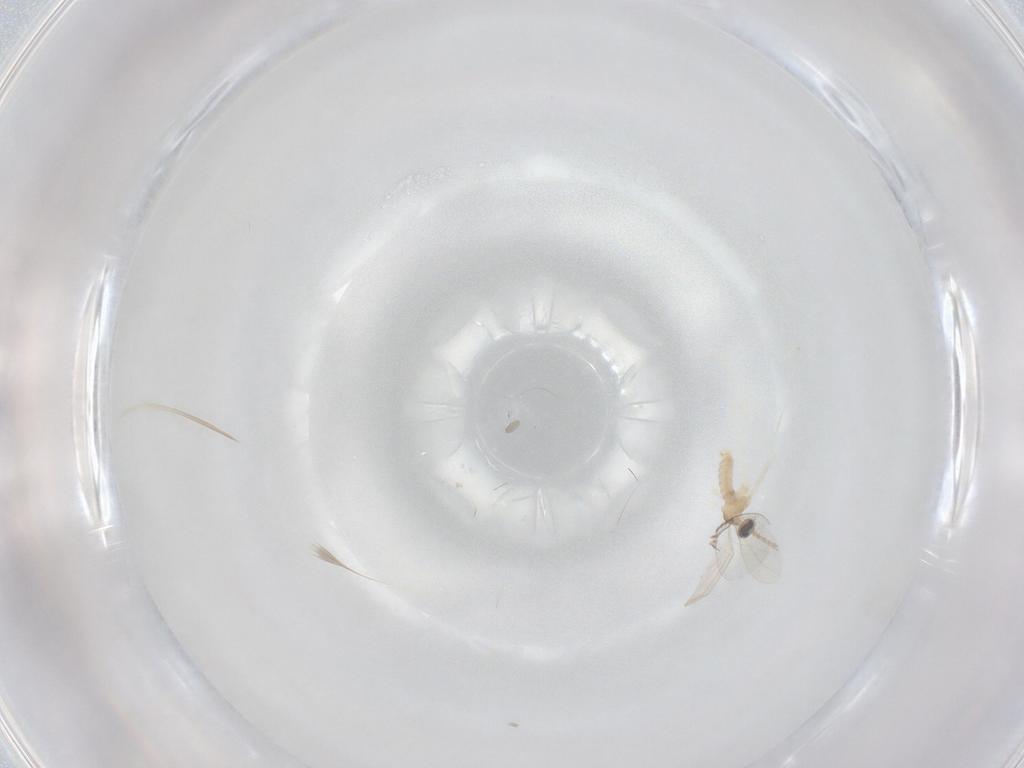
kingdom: Animalia
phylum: Arthropoda
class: Insecta
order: Diptera
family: Cecidomyiidae
